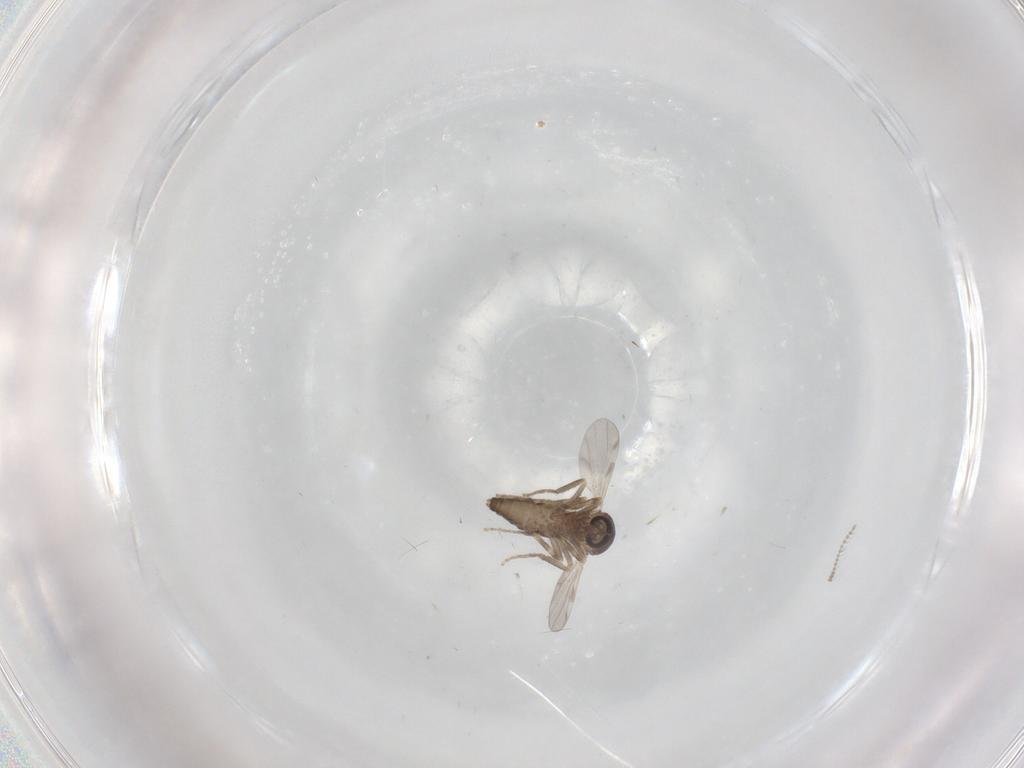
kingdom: Animalia
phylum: Arthropoda
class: Insecta
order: Diptera
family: Ceratopogonidae
